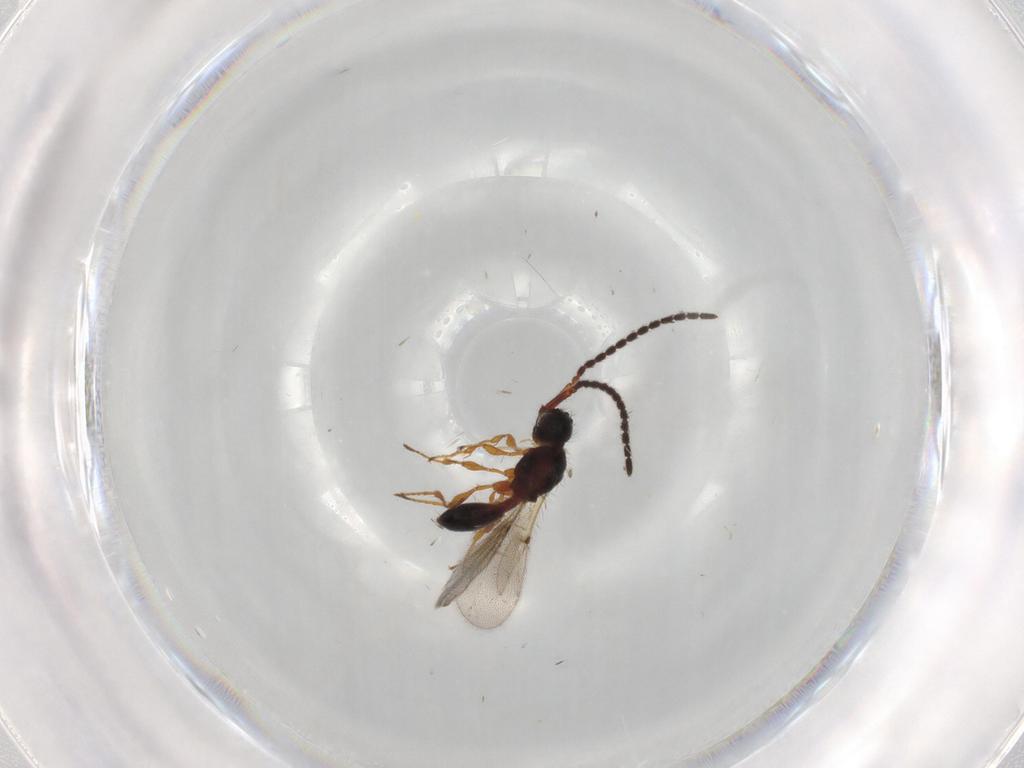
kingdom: Animalia
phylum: Arthropoda
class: Insecta
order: Hymenoptera
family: Diapriidae
